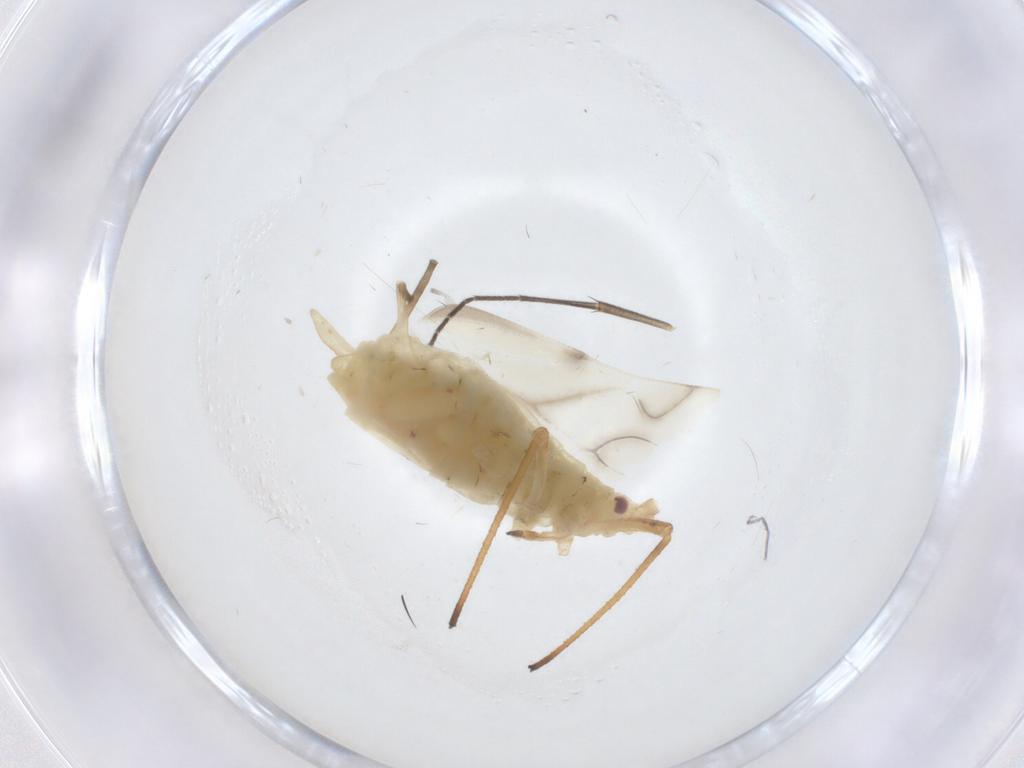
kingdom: Animalia
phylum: Arthropoda
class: Insecta
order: Hemiptera
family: Aphididae
